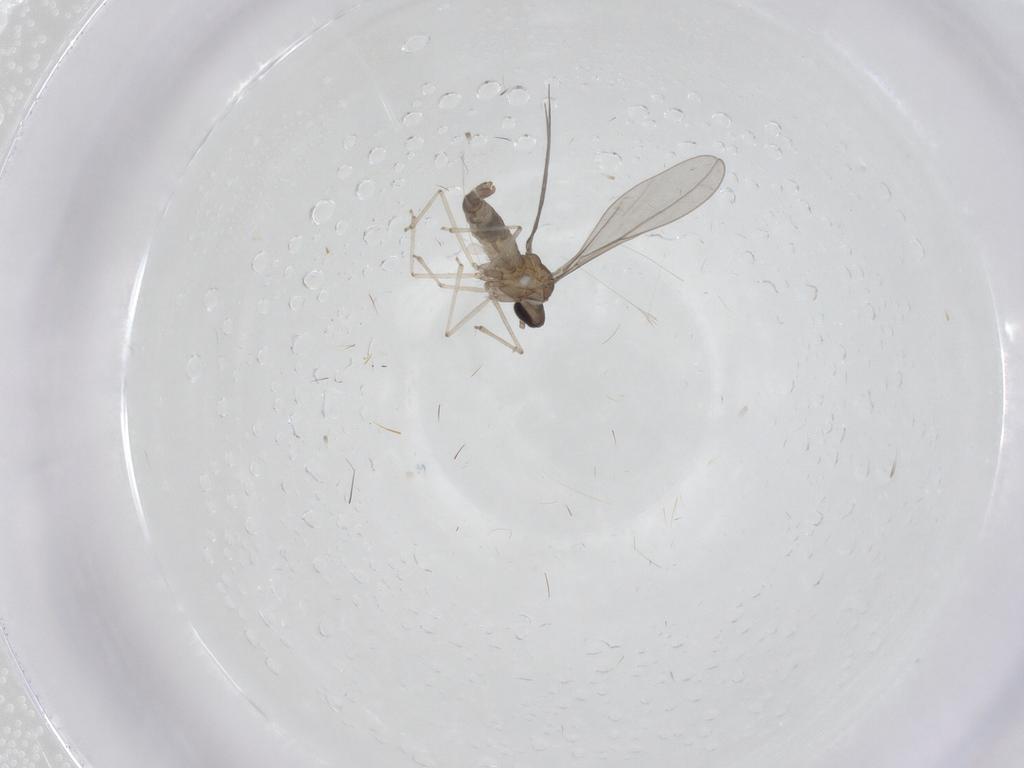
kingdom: Animalia
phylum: Arthropoda
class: Insecta
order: Diptera
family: Cecidomyiidae
